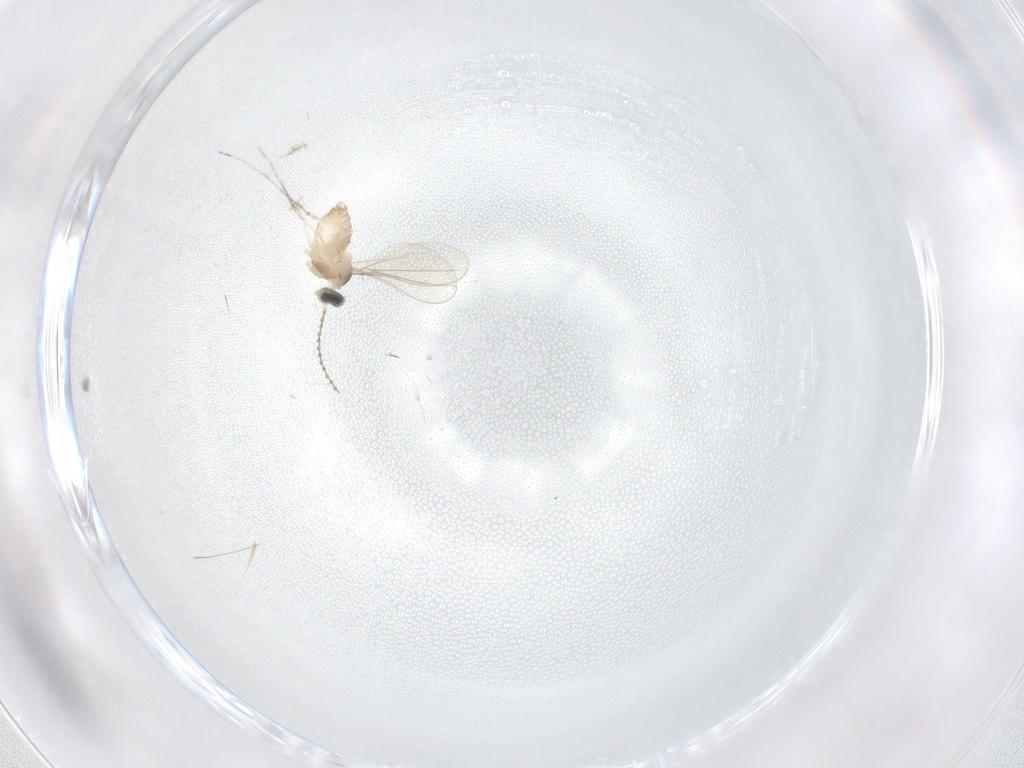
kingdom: Animalia
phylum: Arthropoda
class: Insecta
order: Diptera
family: Cecidomyiidae
